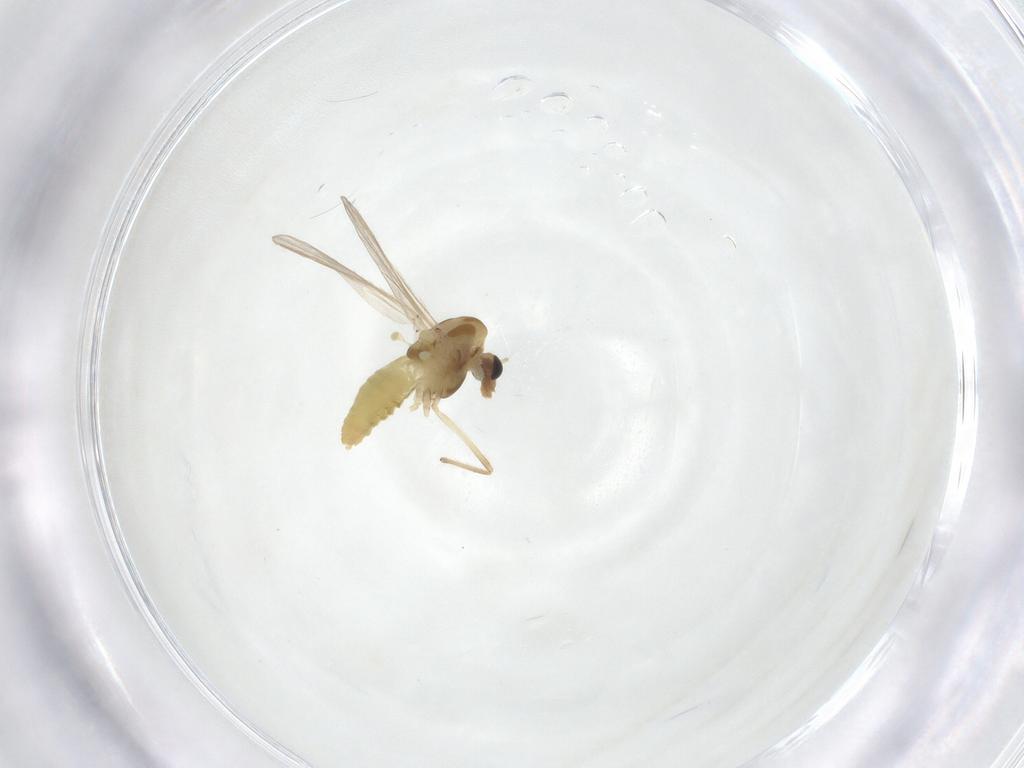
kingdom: Animalia
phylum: Arthropoda
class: Insecta
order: Diptera
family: Chironomidae
